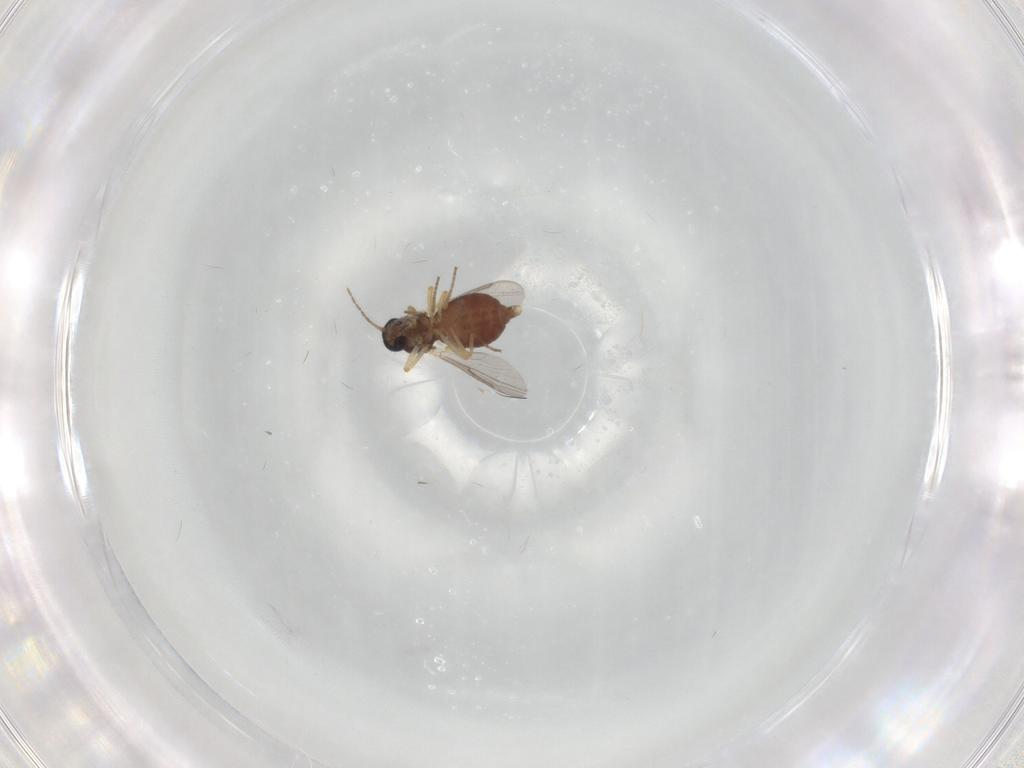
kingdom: Animalia
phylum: Arthropoda
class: Insecta
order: Diptera
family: Ceratopogonidae
